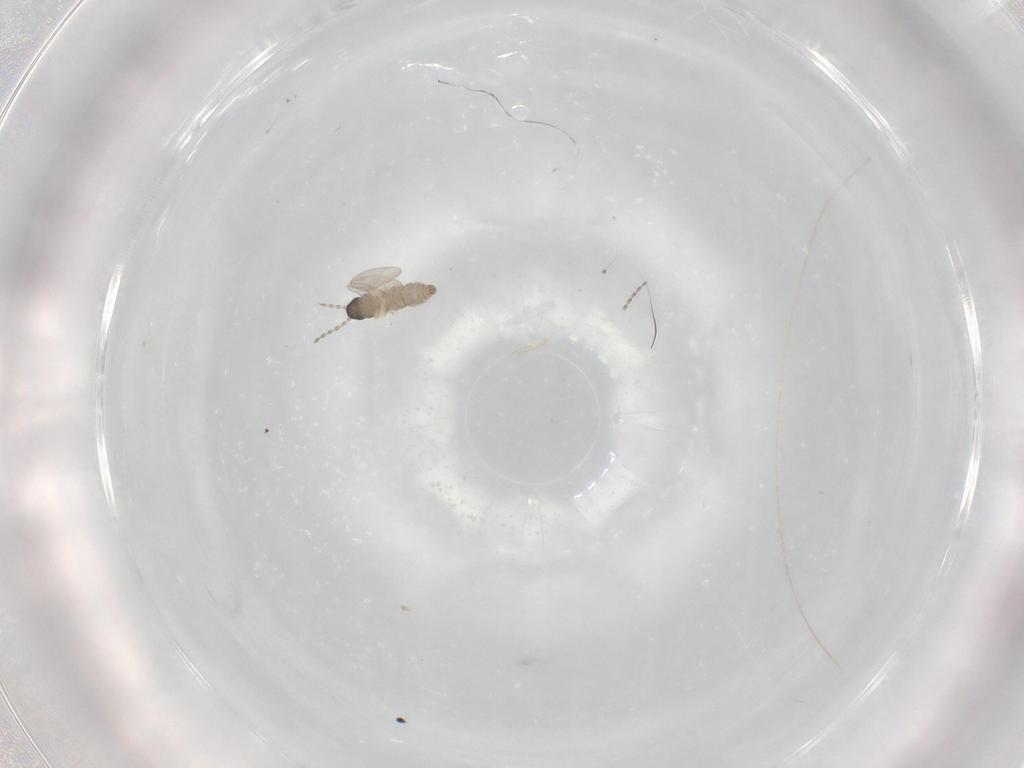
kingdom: Animalia
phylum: Arthropoda
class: Insecta
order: Diptera
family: Cecidomyiidae
